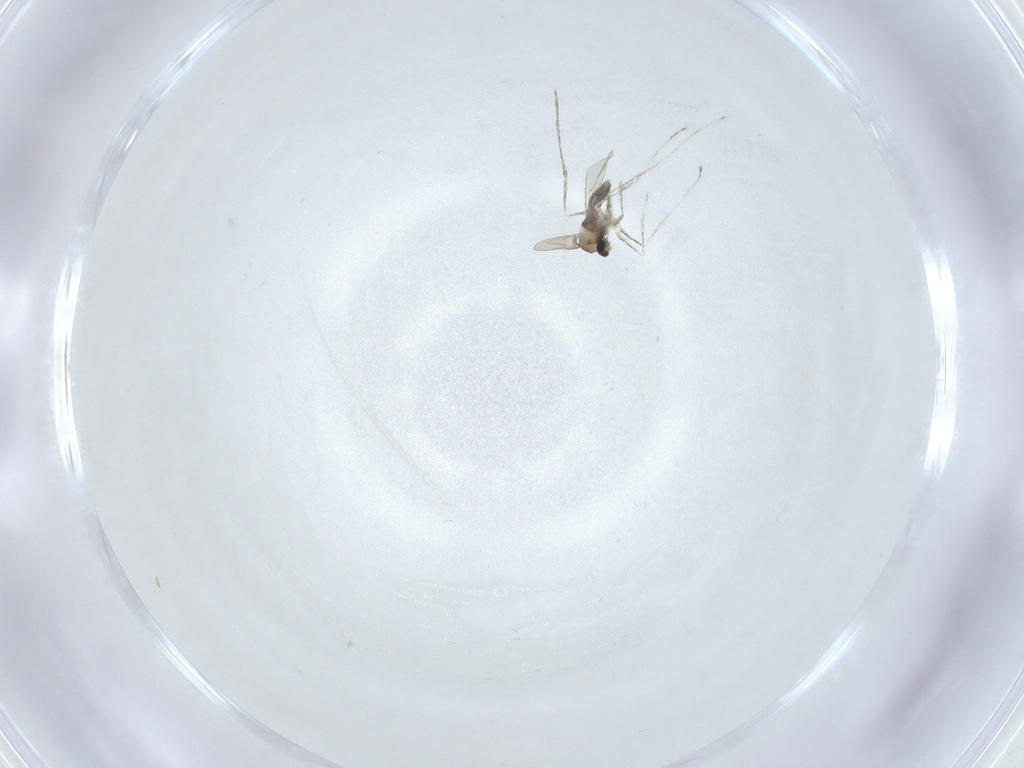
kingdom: Animalia
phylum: Arthropoda
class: Insecta
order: Diptera
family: Hybotidae
